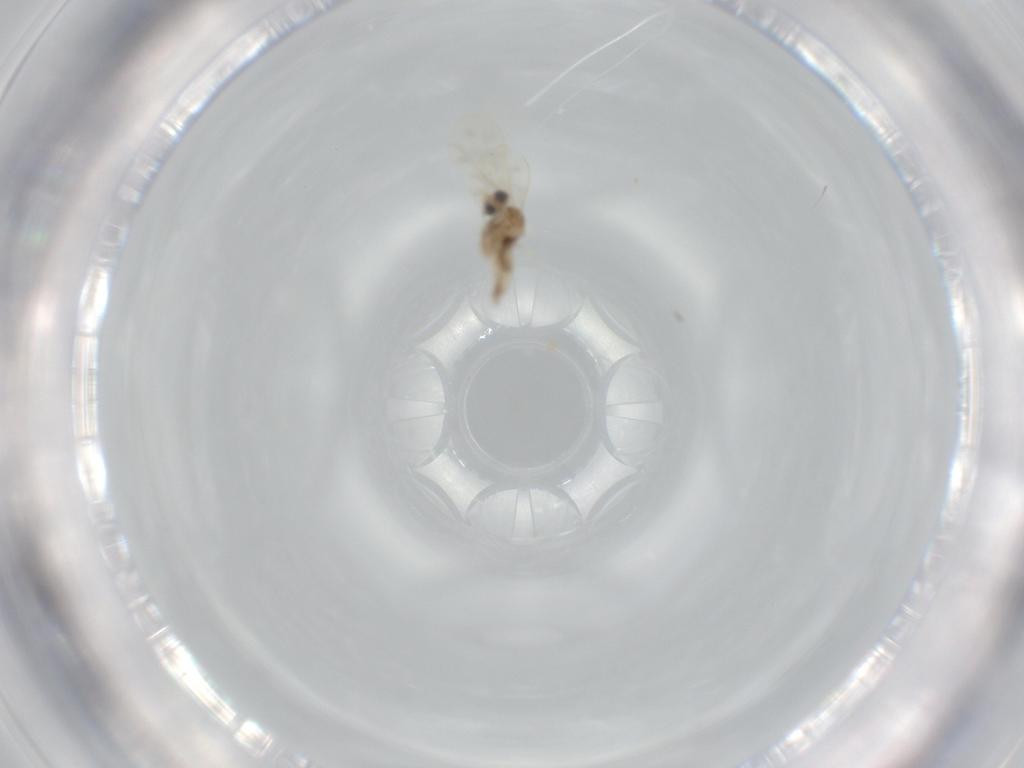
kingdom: Animalia
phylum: Arthropoda
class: Insecta
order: Diptera
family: Cecidomyiidae
